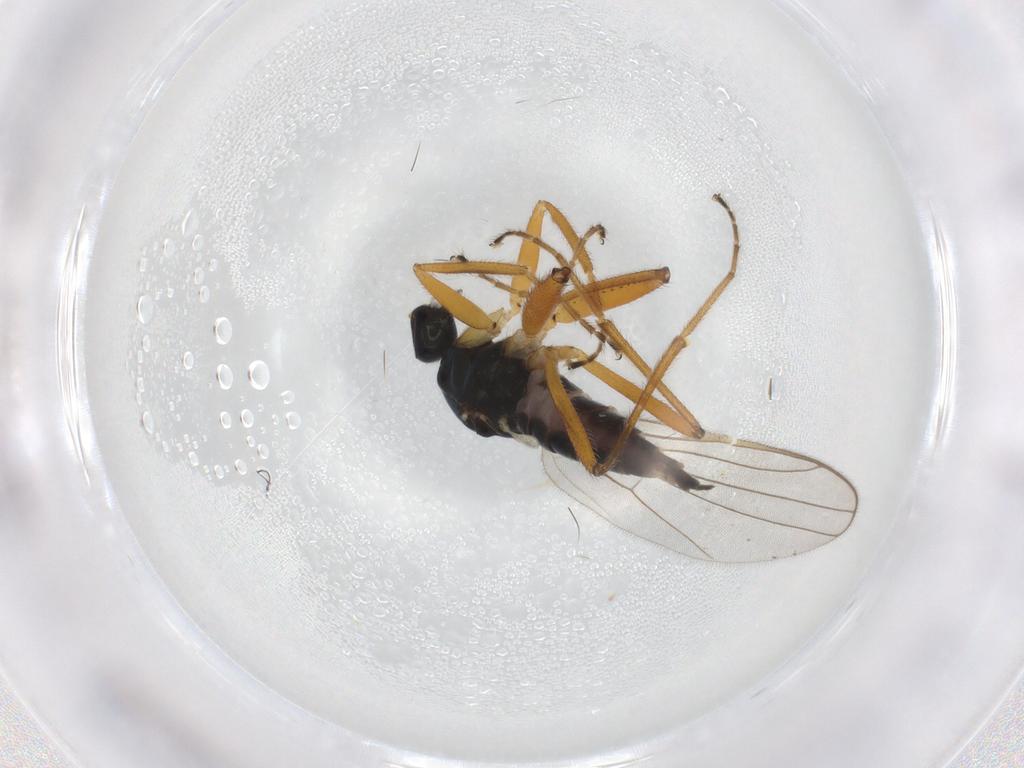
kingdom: Animalia
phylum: Arthropoda
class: Insecta
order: Diptera
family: Hybotidae
